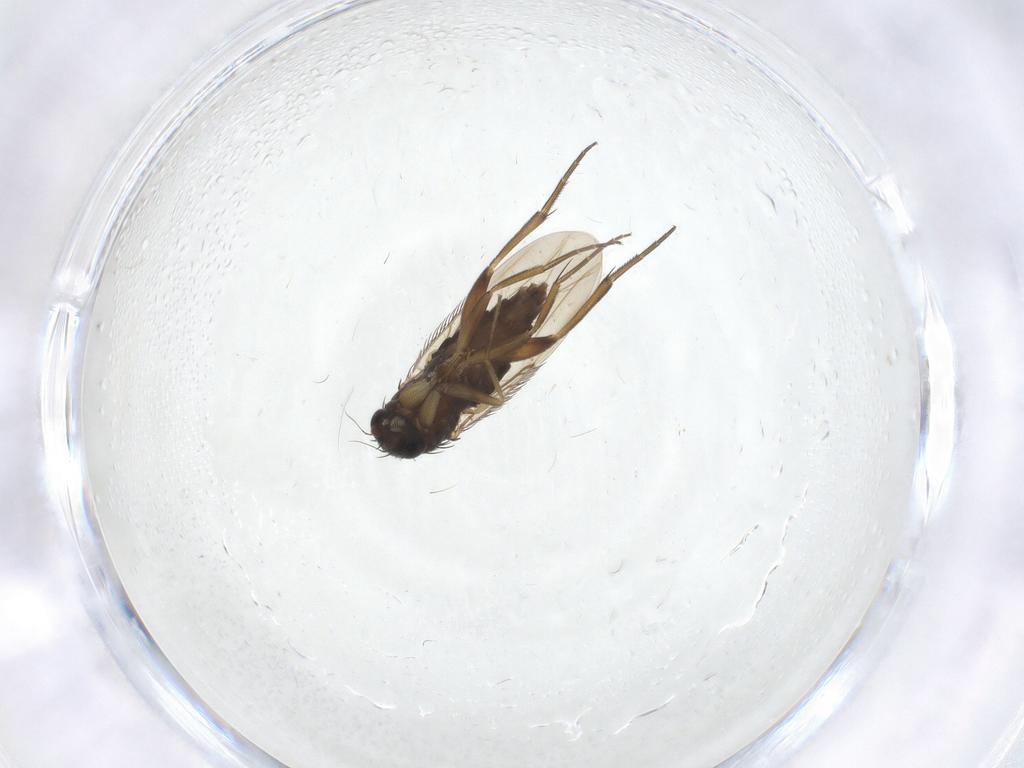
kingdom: Animalia
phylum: Arthropoda
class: Insecta
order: Diptera
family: Phoridae
